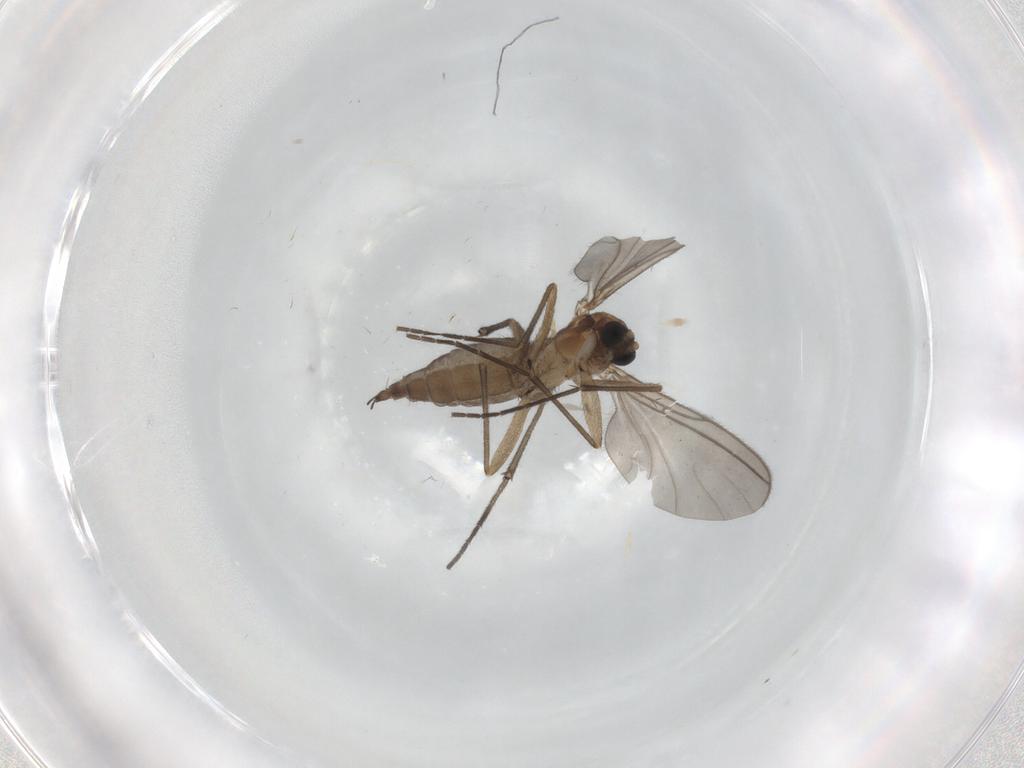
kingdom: Animalia
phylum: Arthropoda
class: Insecta
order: Diptera
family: Sciaridae
